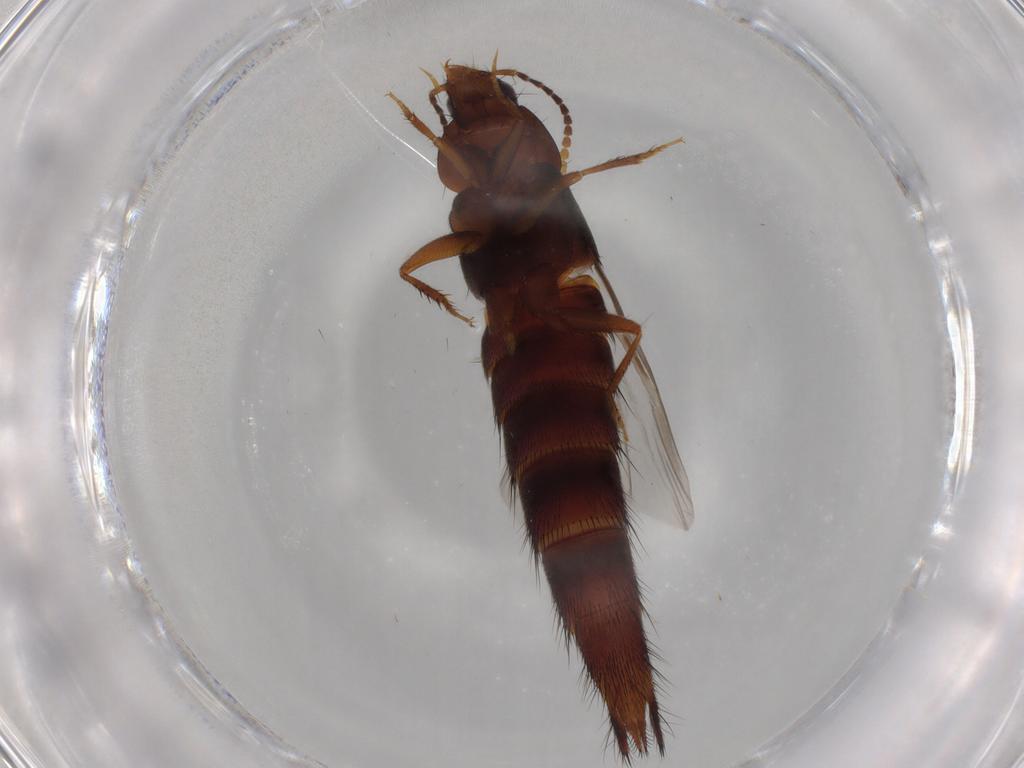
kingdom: Animalia
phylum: Arthropoda
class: Insecta
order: Coleoptera
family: Staphylinidae
